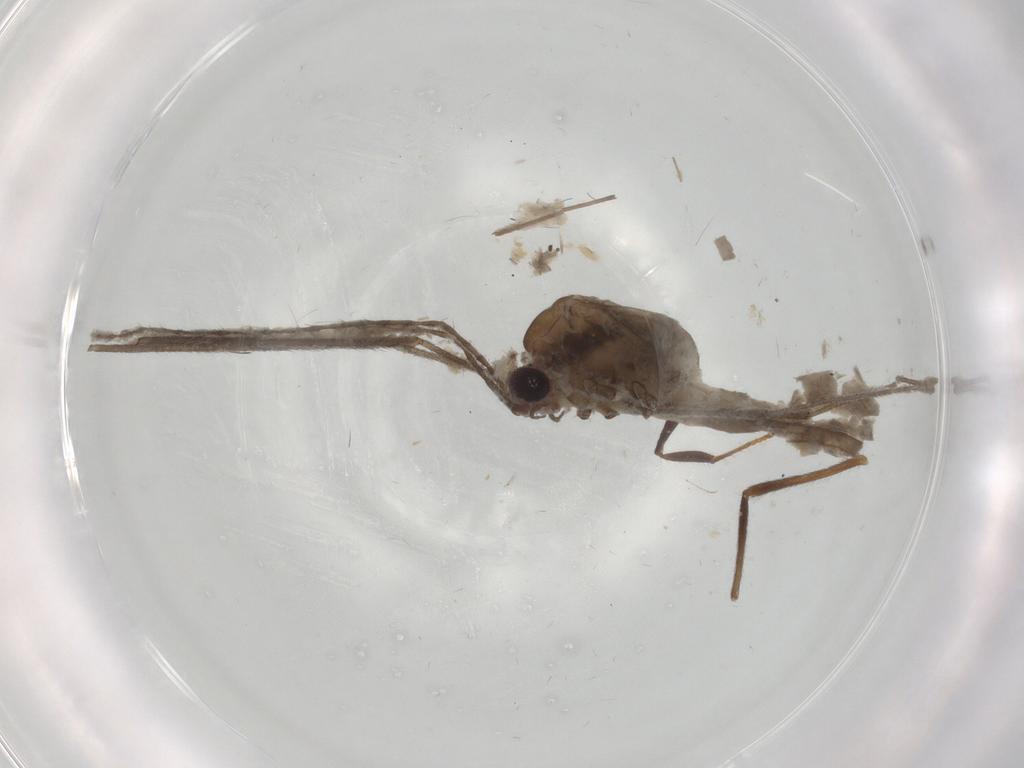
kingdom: Animalia
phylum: Arthropoda
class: Insecta
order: Diptera
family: Limoniidae
